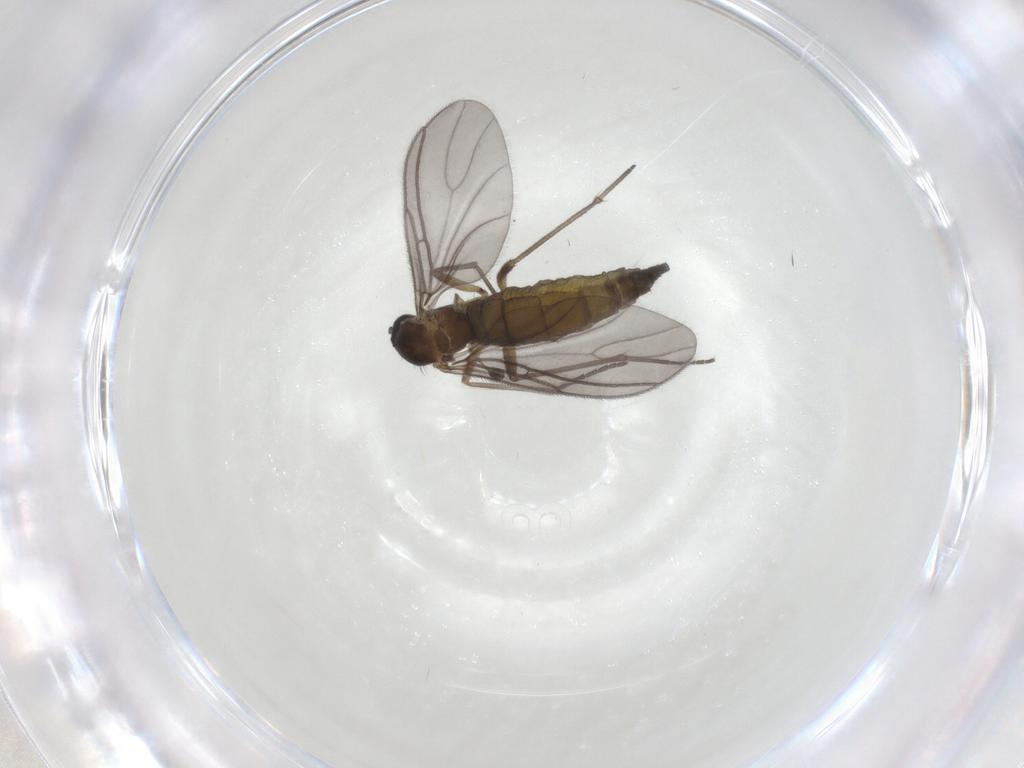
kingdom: Animalia
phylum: Arthropoda
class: Insecta
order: Diptera
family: Sciaridae
